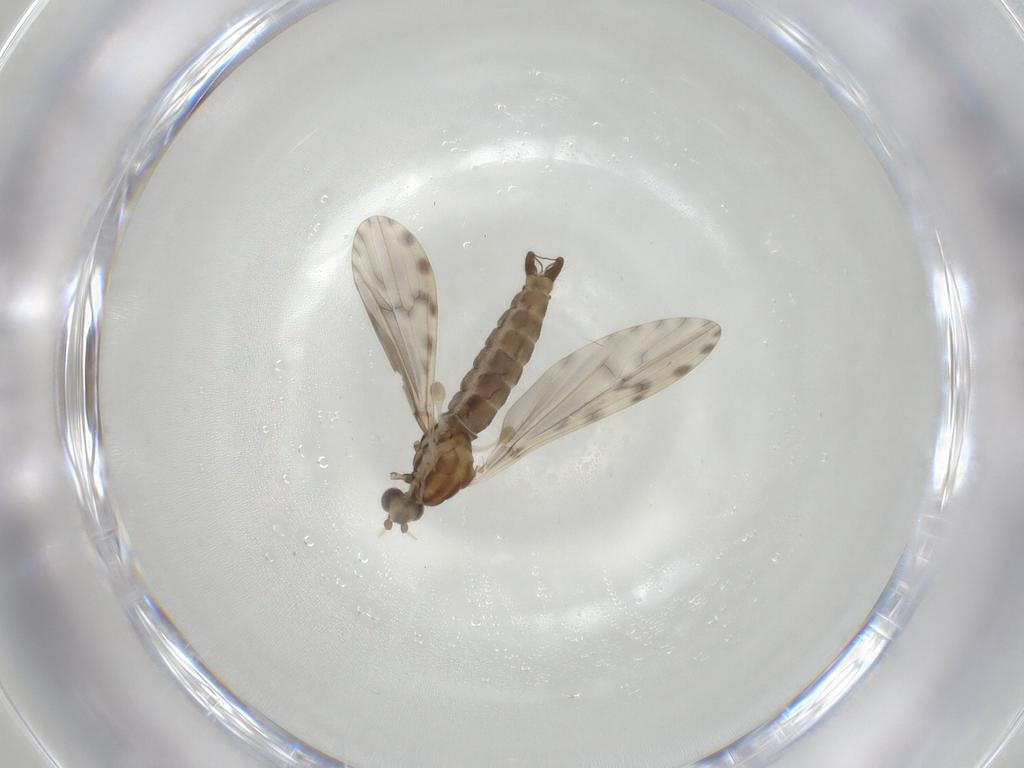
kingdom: Animalia
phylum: Arthropoda
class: Insecta
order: Diptera
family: Limoniidae
